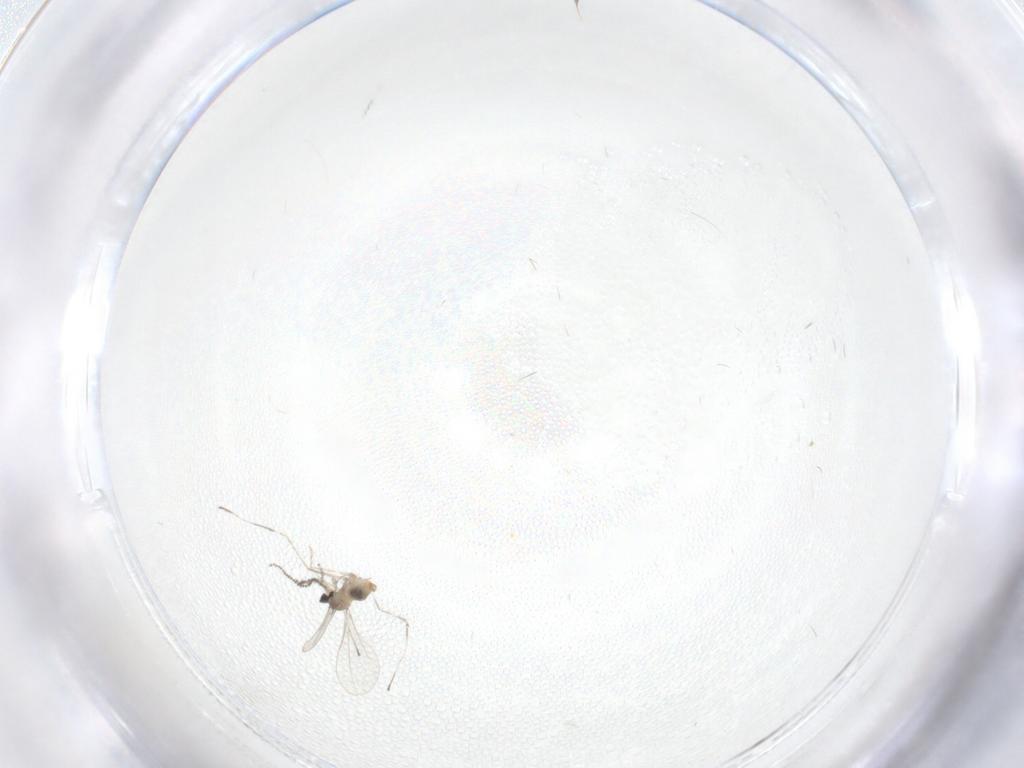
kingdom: Animalia
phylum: Arthropoda
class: Insecta
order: Diptera
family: Cecidomyiidae
